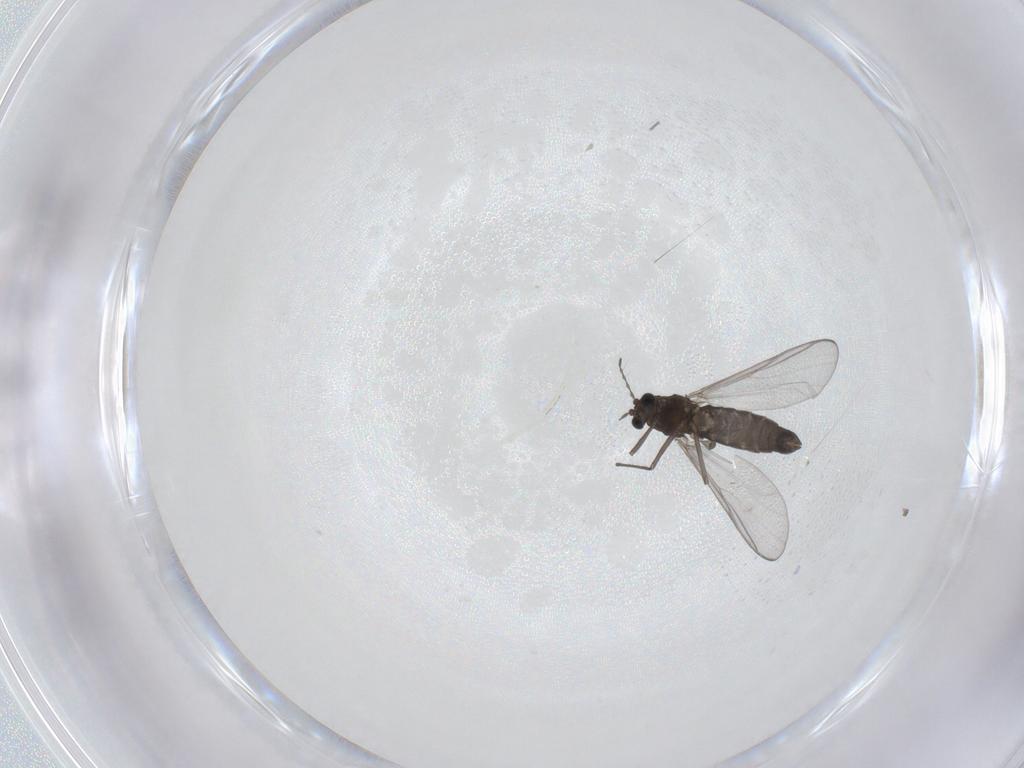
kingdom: Animalia
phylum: Arthropoda
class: Insecta
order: Diptera
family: Chironomidae
